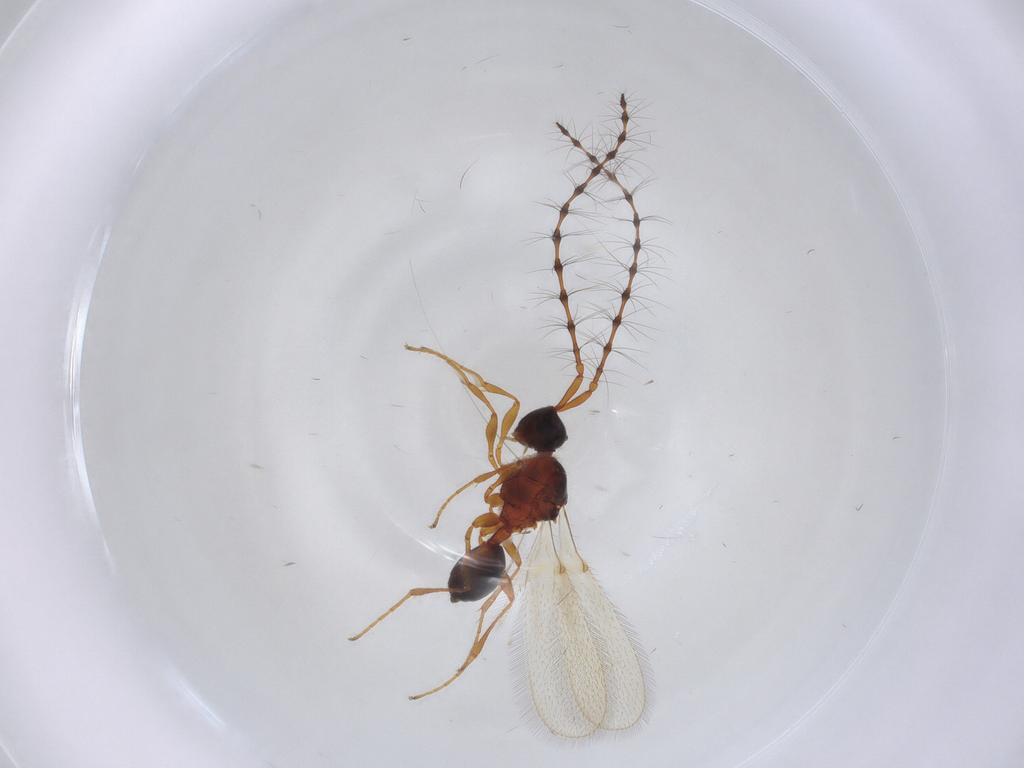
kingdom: Animalia
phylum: Arthropoda
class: Insecta
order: Hymenoptera
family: Diapriidae
